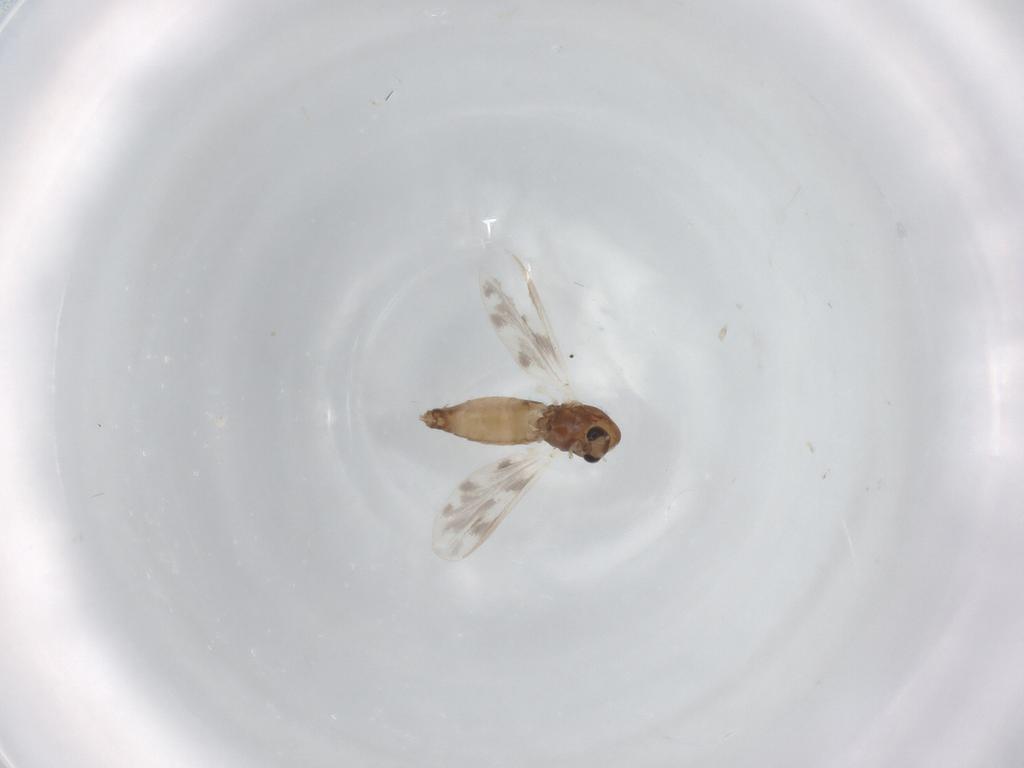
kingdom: Animalia
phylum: Arthropoda
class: Insecta
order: Diptera
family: Chironomidae
